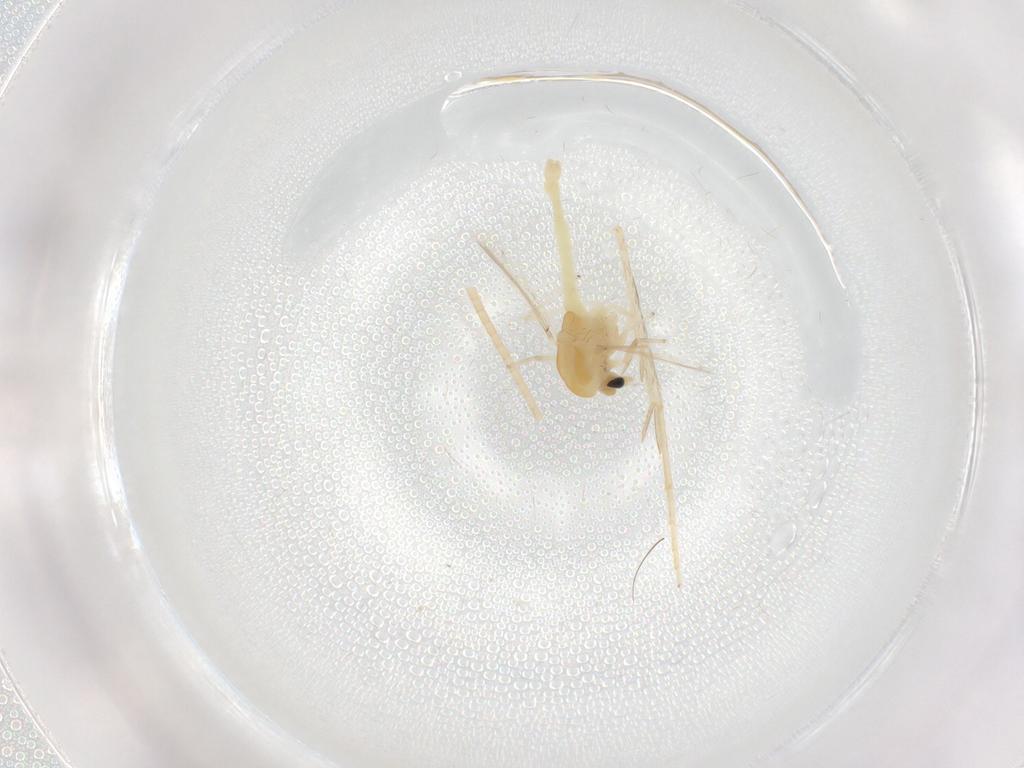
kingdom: Animalia
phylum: Arthropoda
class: Insecta
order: Diptera
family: Chironomidae
